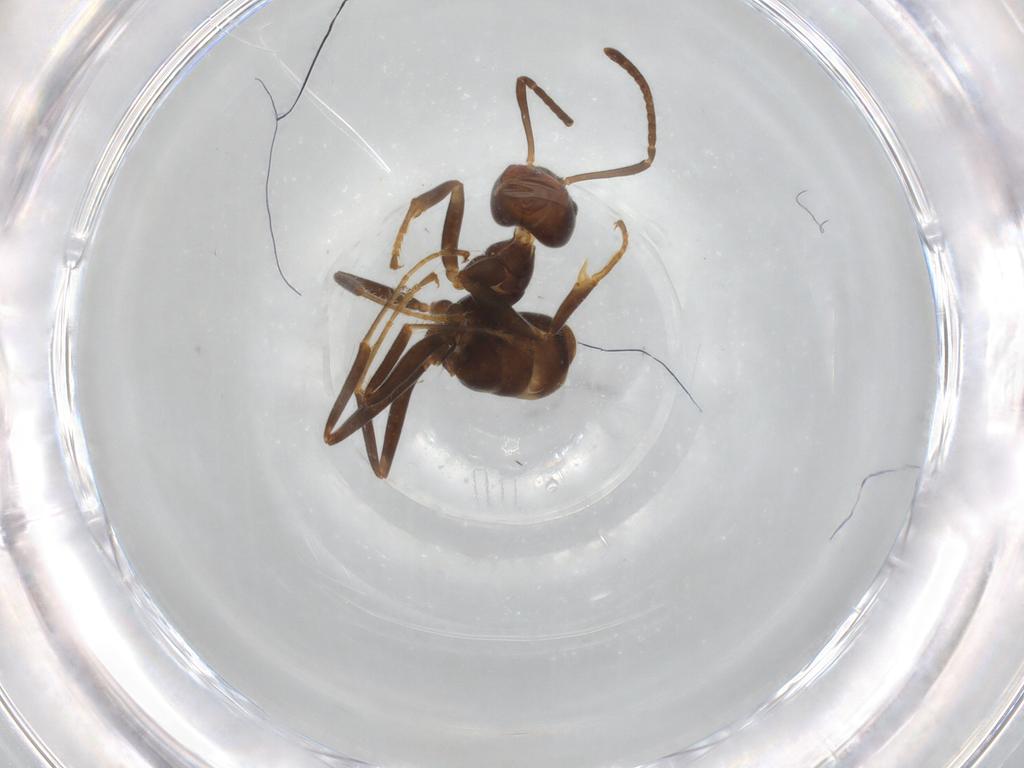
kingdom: Animalia
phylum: Arthropoda
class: Insecta
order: Hymenoptera
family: Formicidae
